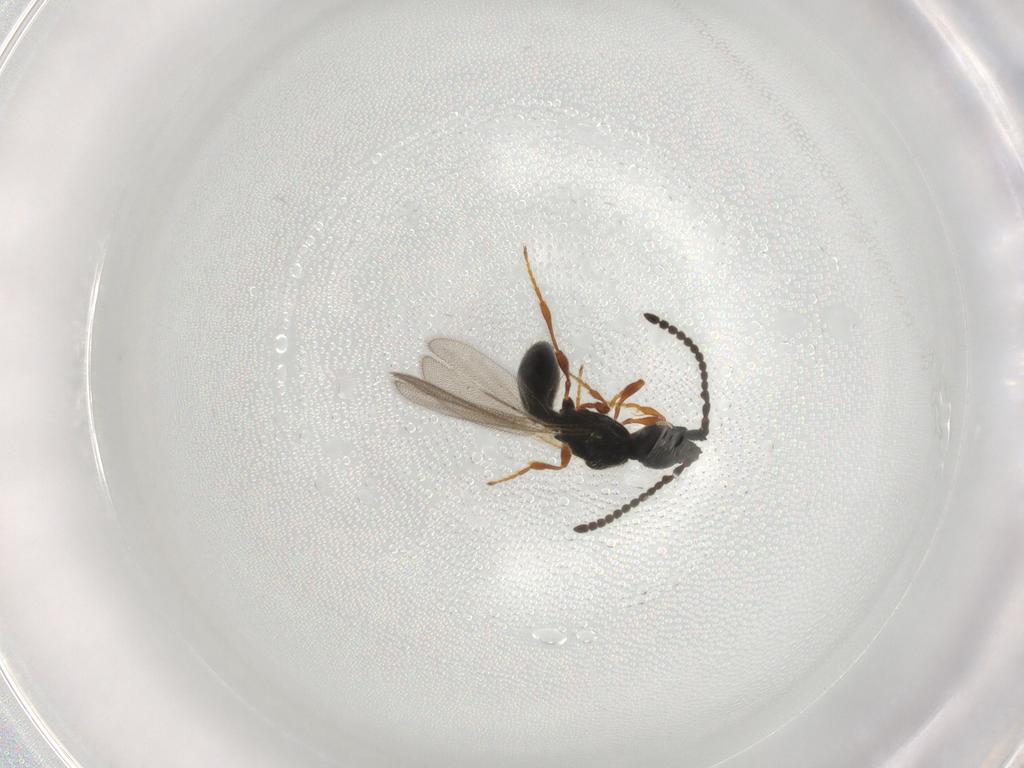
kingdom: Animalia
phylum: Arthropoda
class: Insecta
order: Hymenoptera
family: Diapriidae
